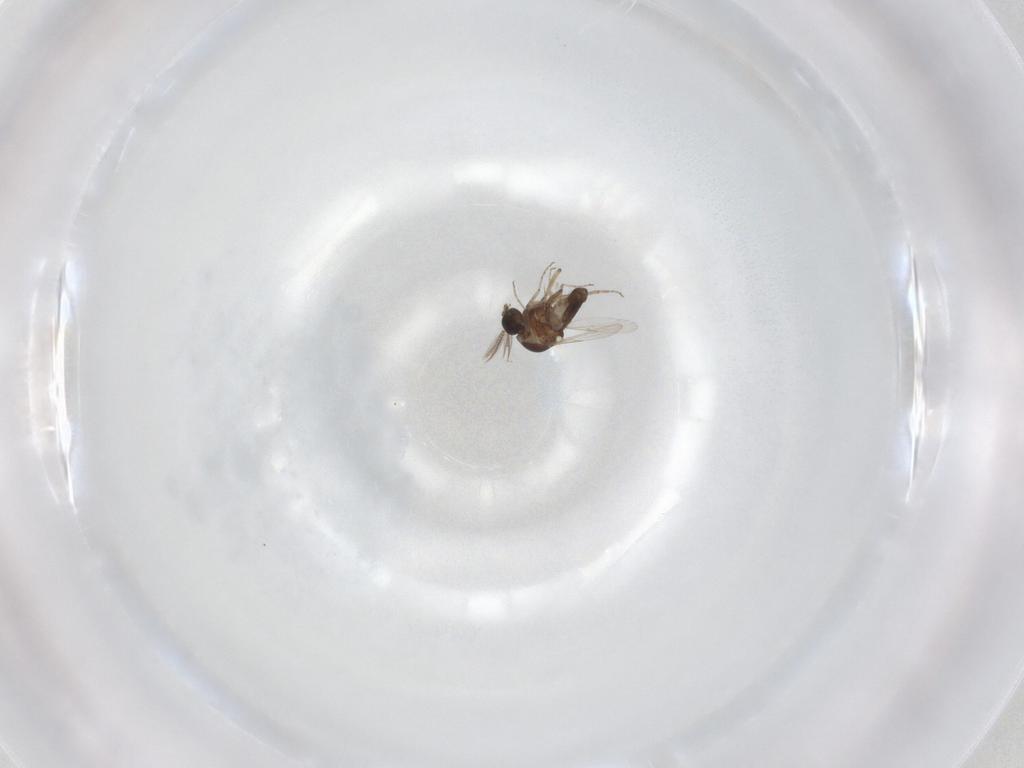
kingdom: Animalia
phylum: Arthropoda
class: Insecta
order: Diptera
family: Ceratopogonidae
